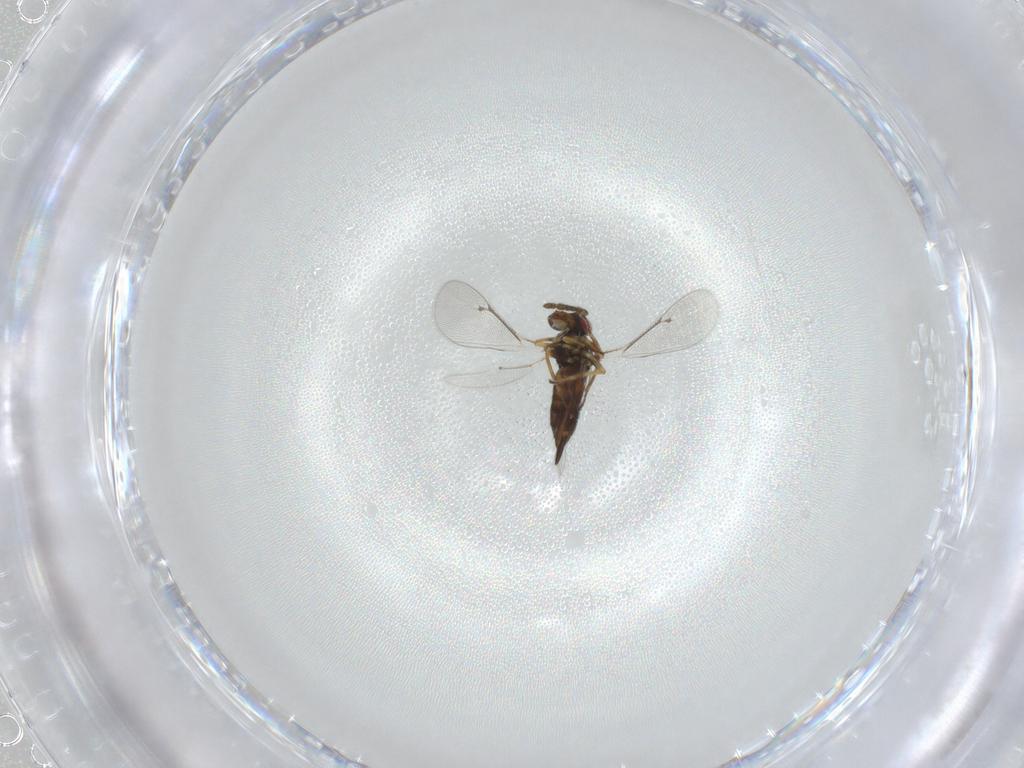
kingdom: Animalia
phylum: Arthropoda
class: Insecta
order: Hymenoptera
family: Eulophidae
